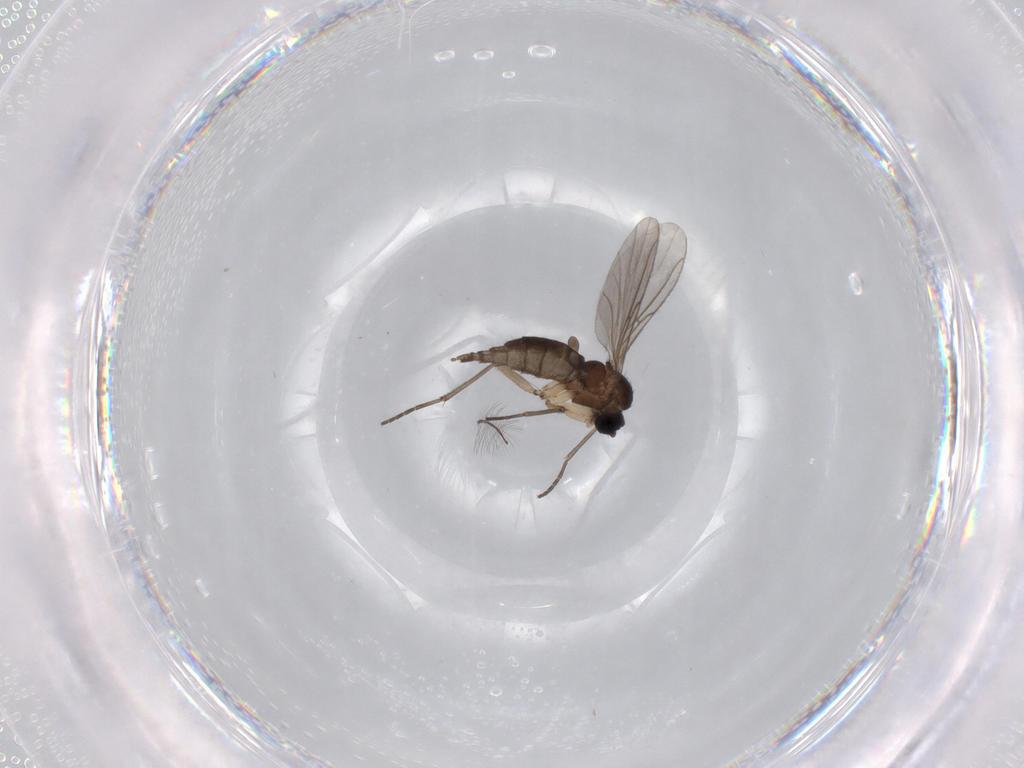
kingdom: Animalia
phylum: Arthropoda
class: Insecta
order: Diptera
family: Sciaridae
